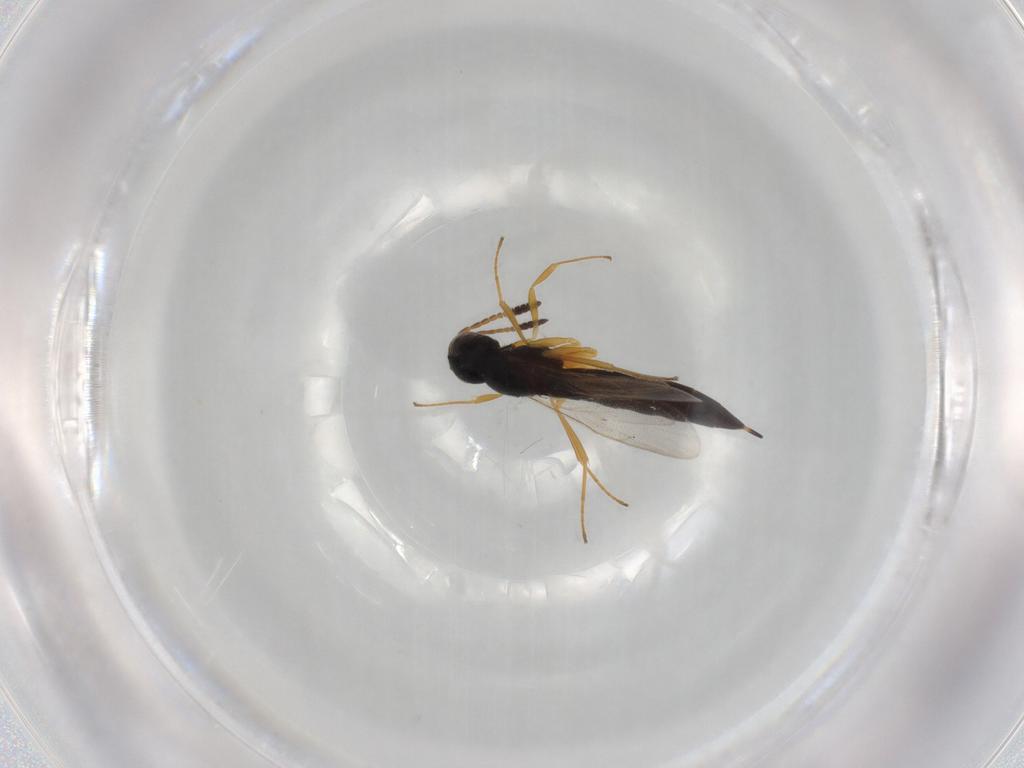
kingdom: Animalia
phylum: Arthropoda
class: Insecta
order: Hymenoptera
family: Scelionidae
